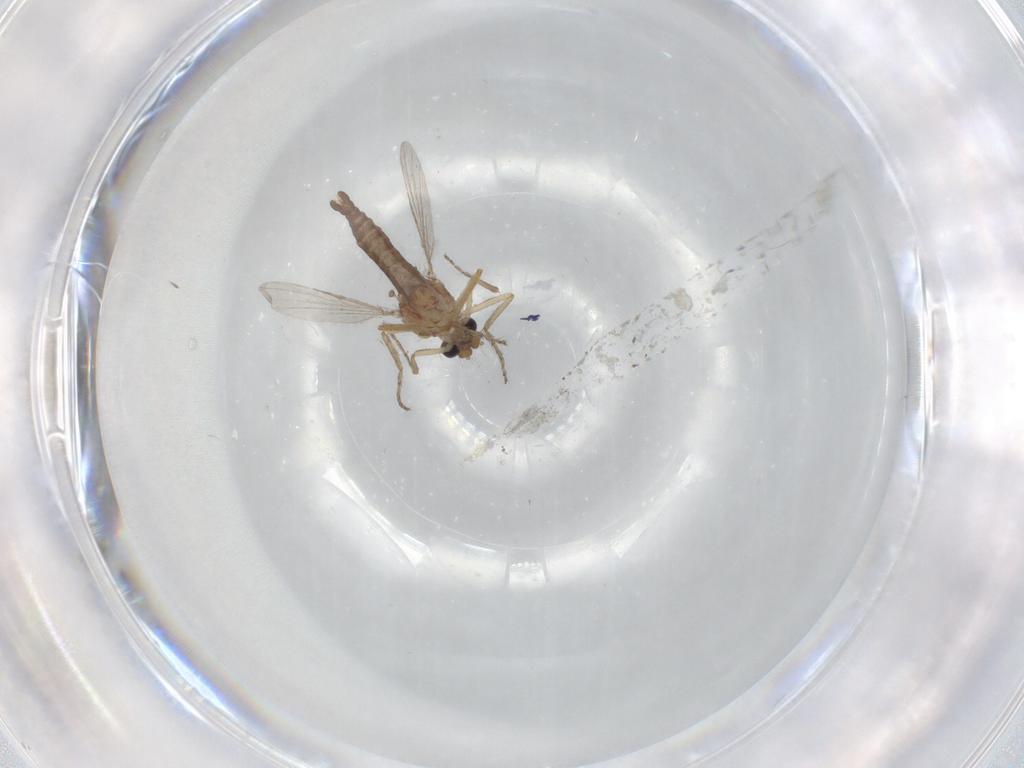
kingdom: Animalia
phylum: Arthropoda
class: Insecta
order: Diptera
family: Ceratopogonidae
